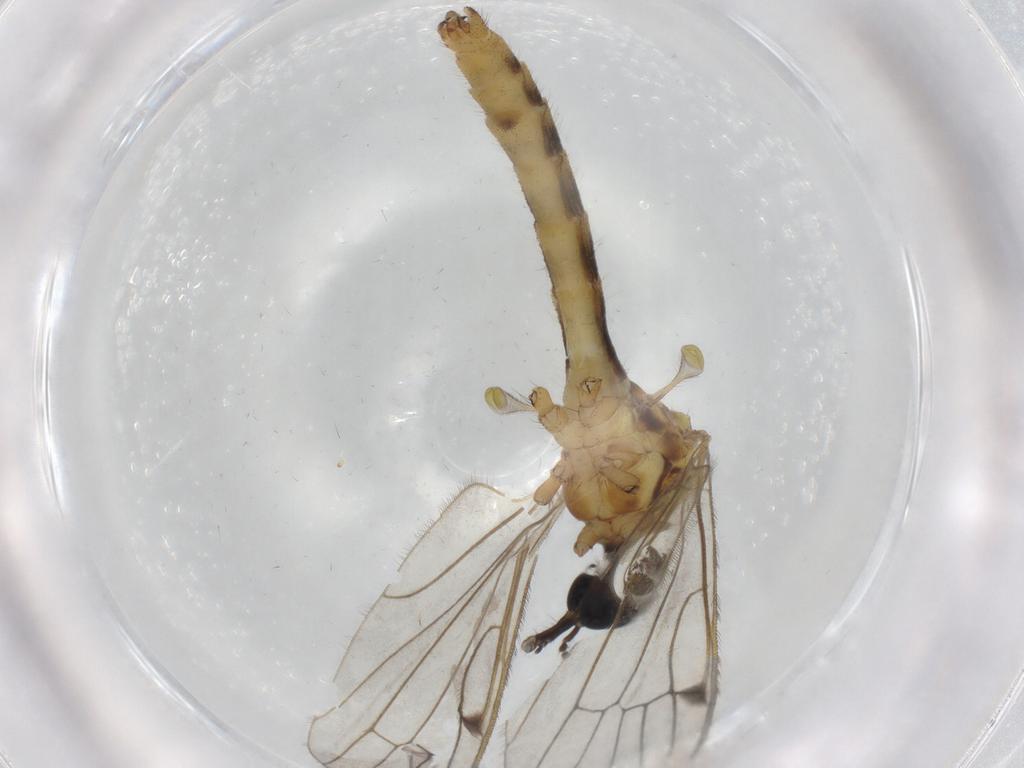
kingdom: Animalia
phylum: Arthropoda
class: Insecta
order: Diptera
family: Limoniidae
